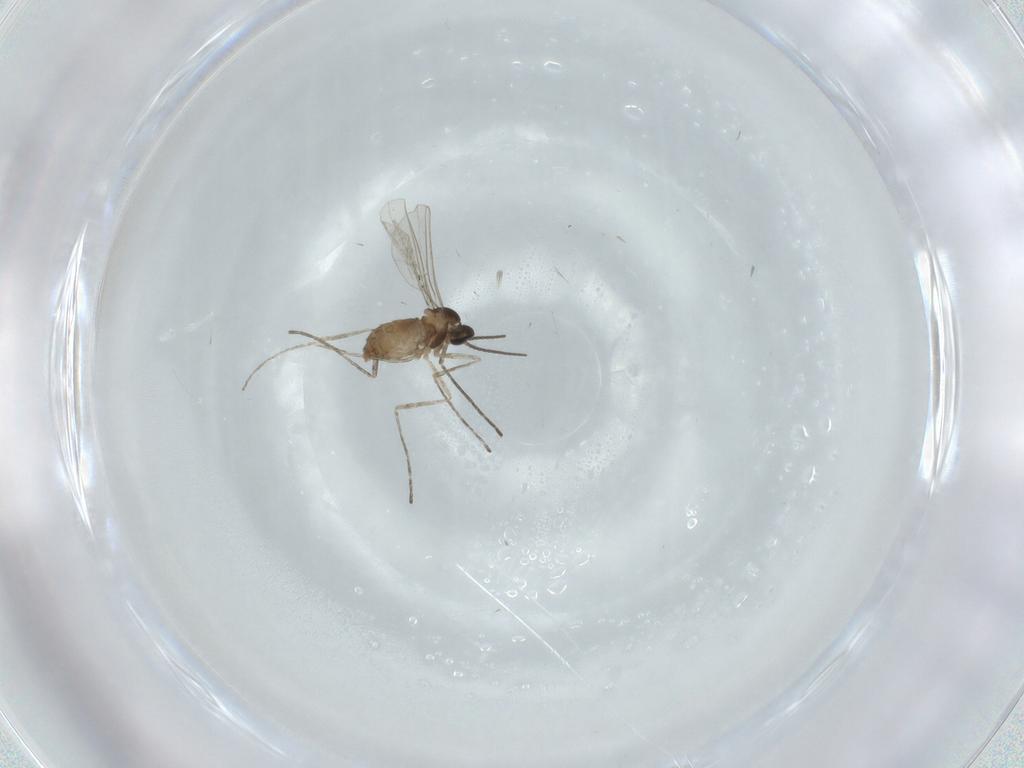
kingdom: Animalia
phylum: Arthropoda
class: Insecta
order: Diptera
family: Cecidomyiidae
